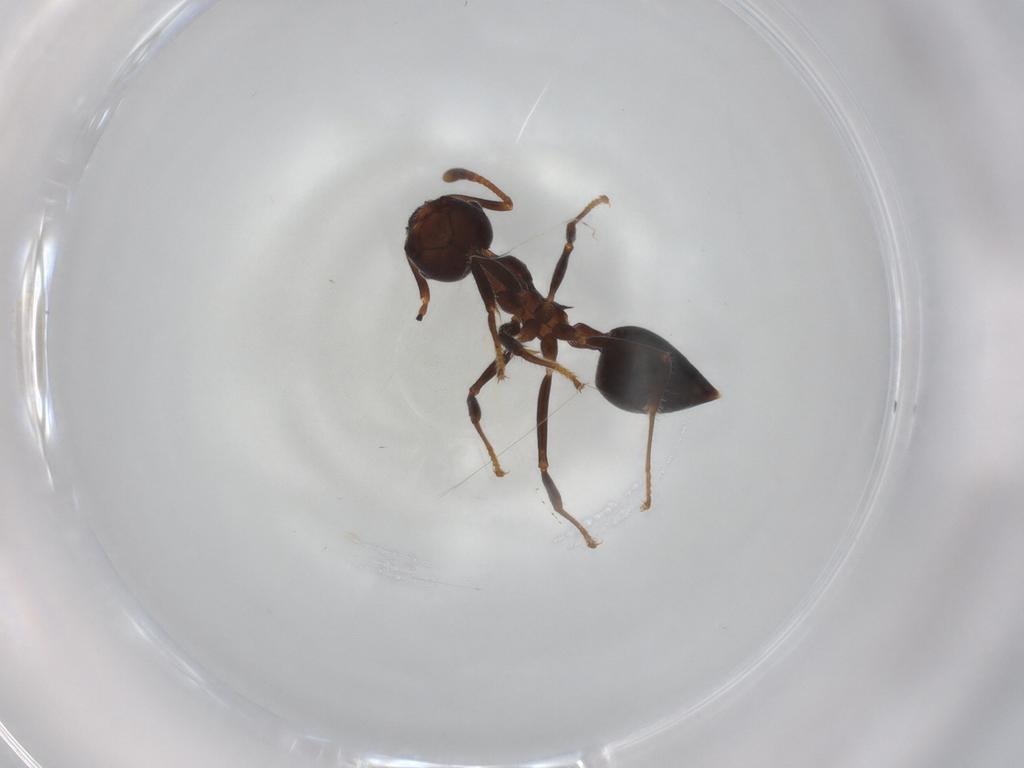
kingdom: Animalia
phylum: Arthropoda
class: Insecta
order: Hymenoptera
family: Formicidae
